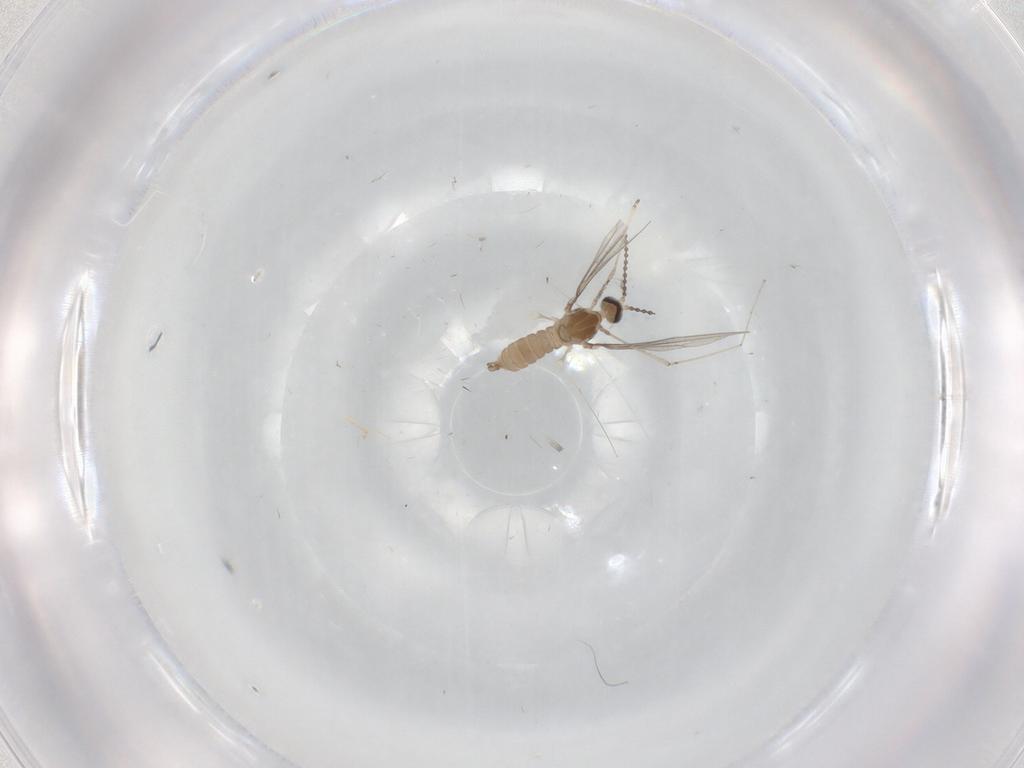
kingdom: Animalia
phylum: Arthropoda
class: Insecta
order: Diptera
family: Cecidomyiidae
